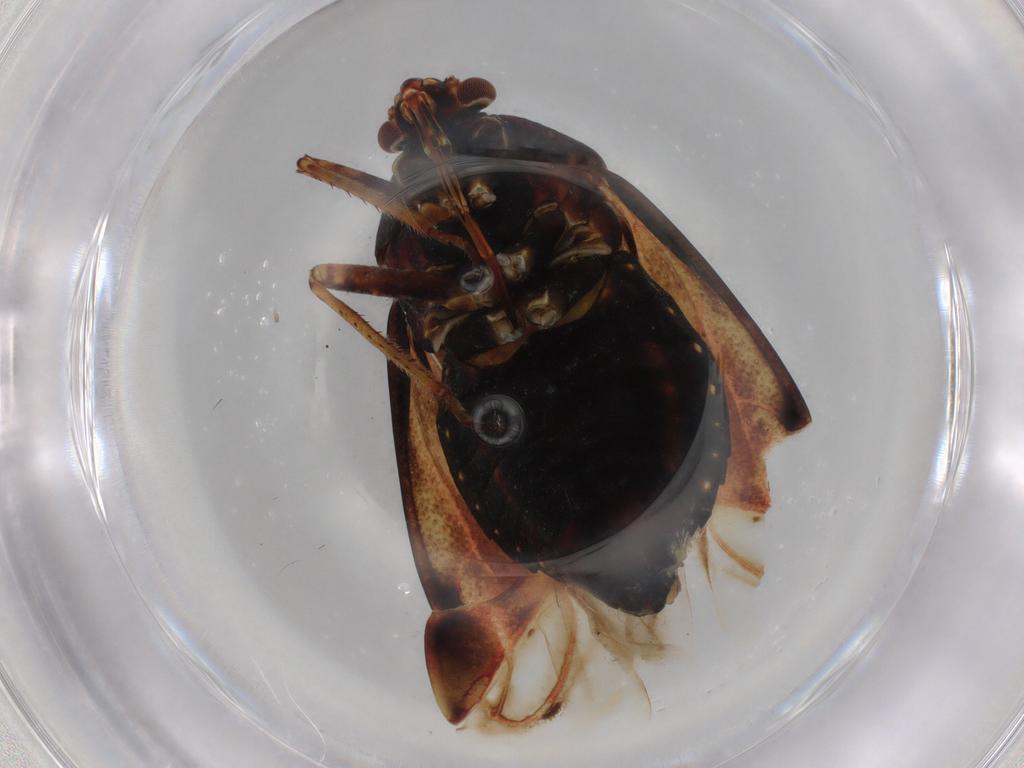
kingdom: Animalia
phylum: Arthropoda
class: Insecta
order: Hemiptera
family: Miridae
